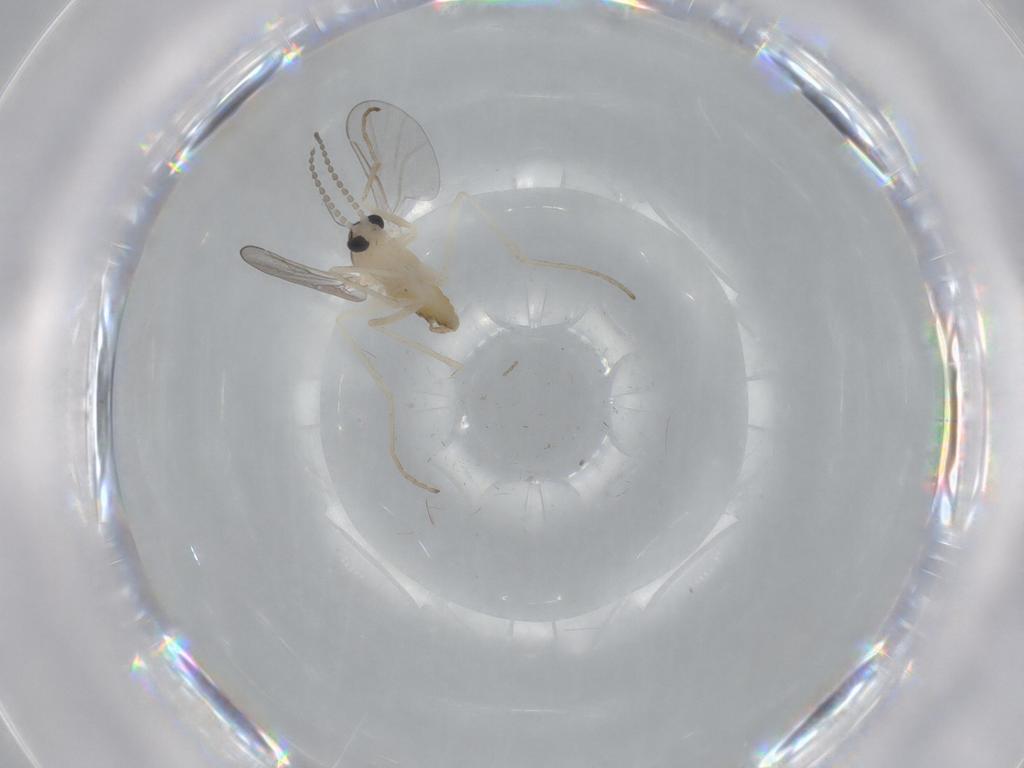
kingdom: Animalia
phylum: Arthropoda
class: Insecta
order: Diptera
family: Cecidomyiidae
